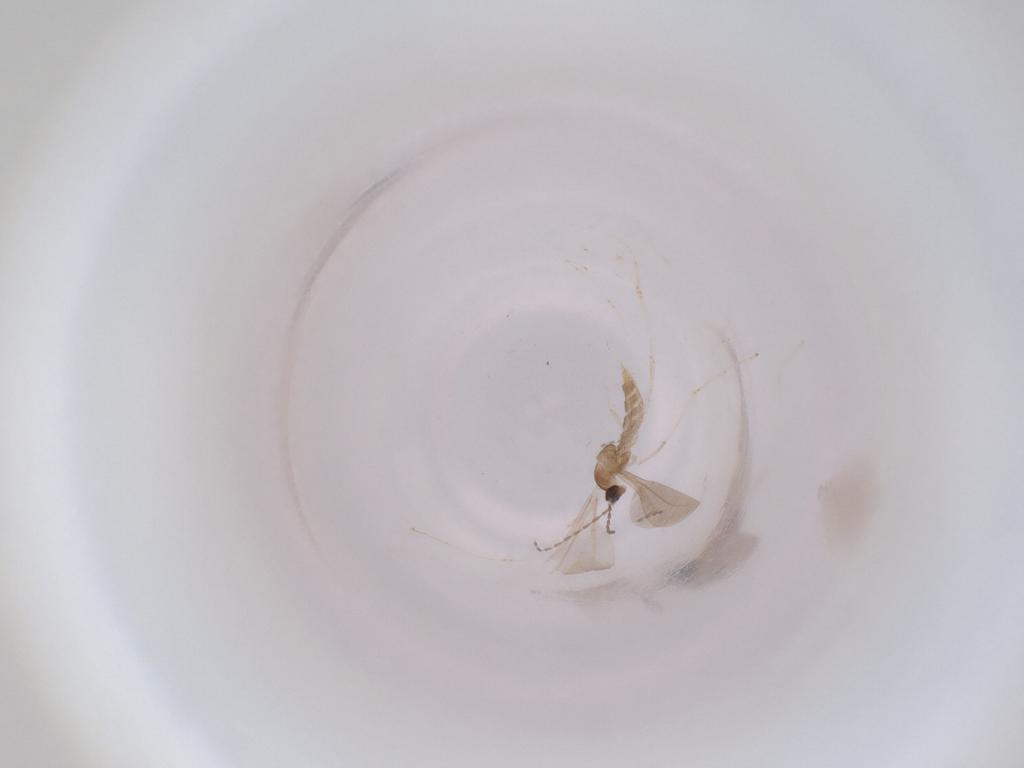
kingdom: Animalia
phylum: Arthropoda
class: Insecta
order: Diptera
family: Cecidomyiidae
